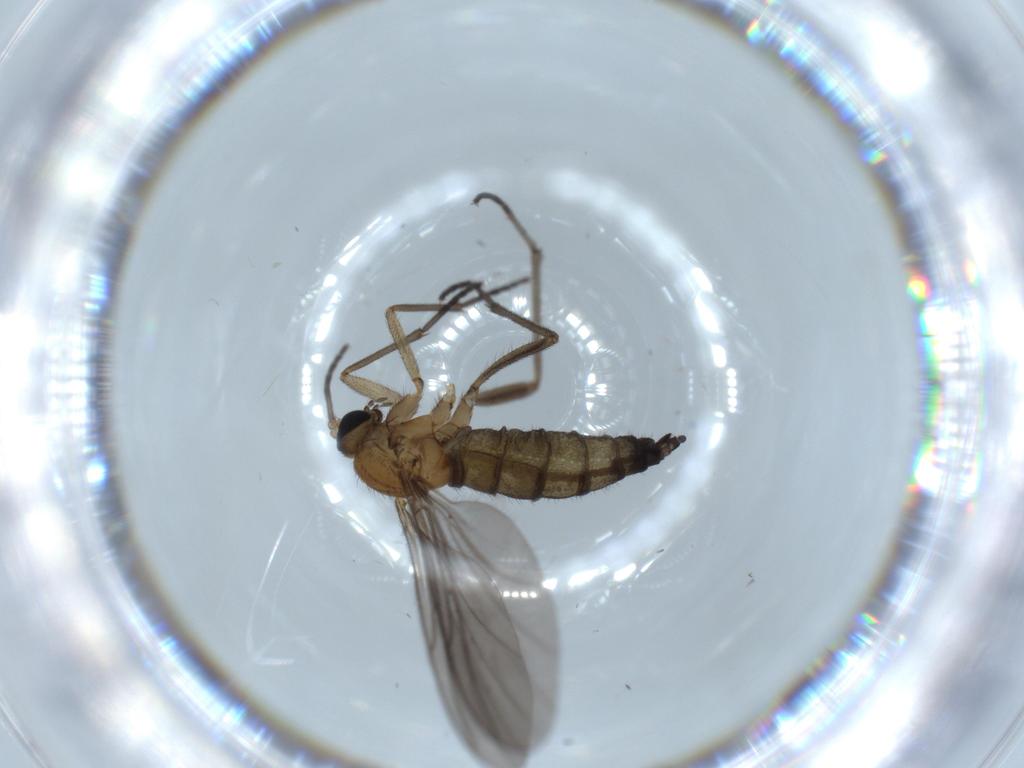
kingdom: Animalia
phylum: Arthropoda
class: Insecta
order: Diptera
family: Sciaridae
